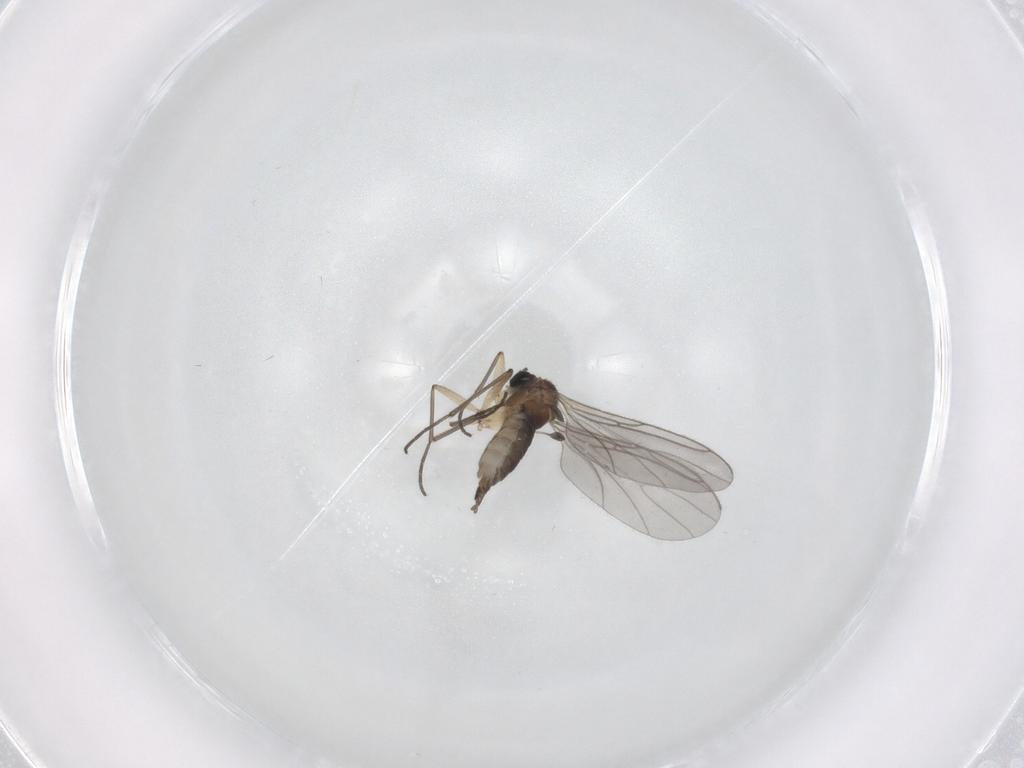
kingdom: Animalia
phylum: Arthropoda
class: Insecta
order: Diptera
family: Sciaridae
